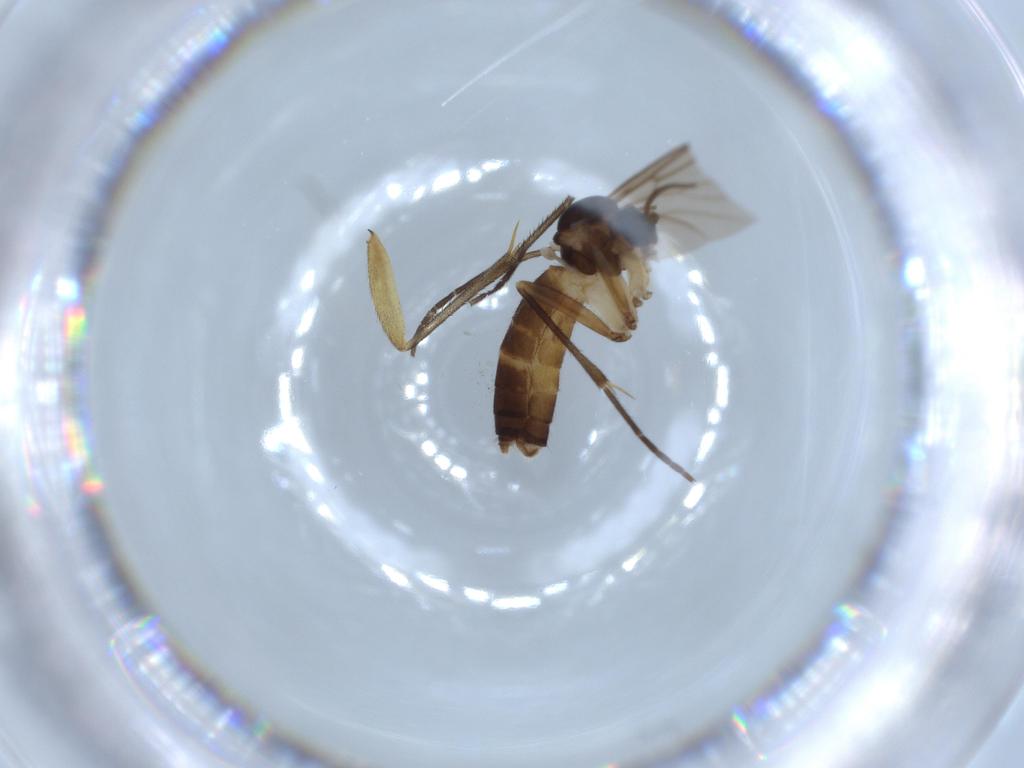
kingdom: Animalia
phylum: Arthropoda
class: Insecta
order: Diptera
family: Mycetophilidae
